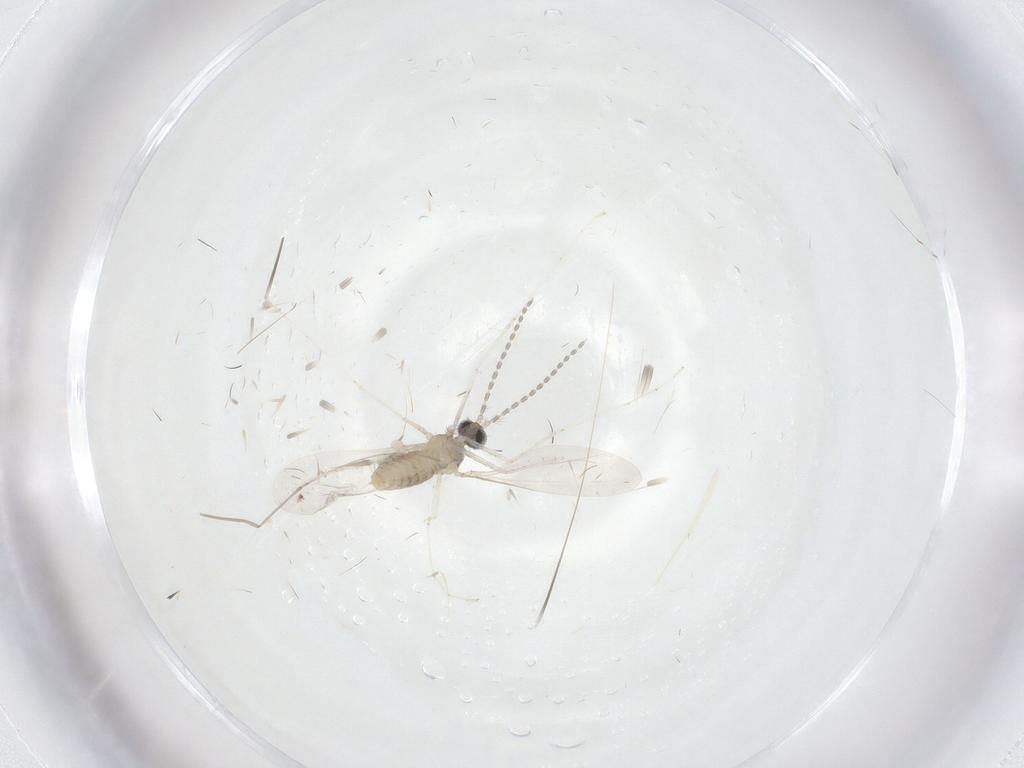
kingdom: Animalia
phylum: Arthropoda
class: Insecta
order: Diptera
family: Cecidomyiidae
